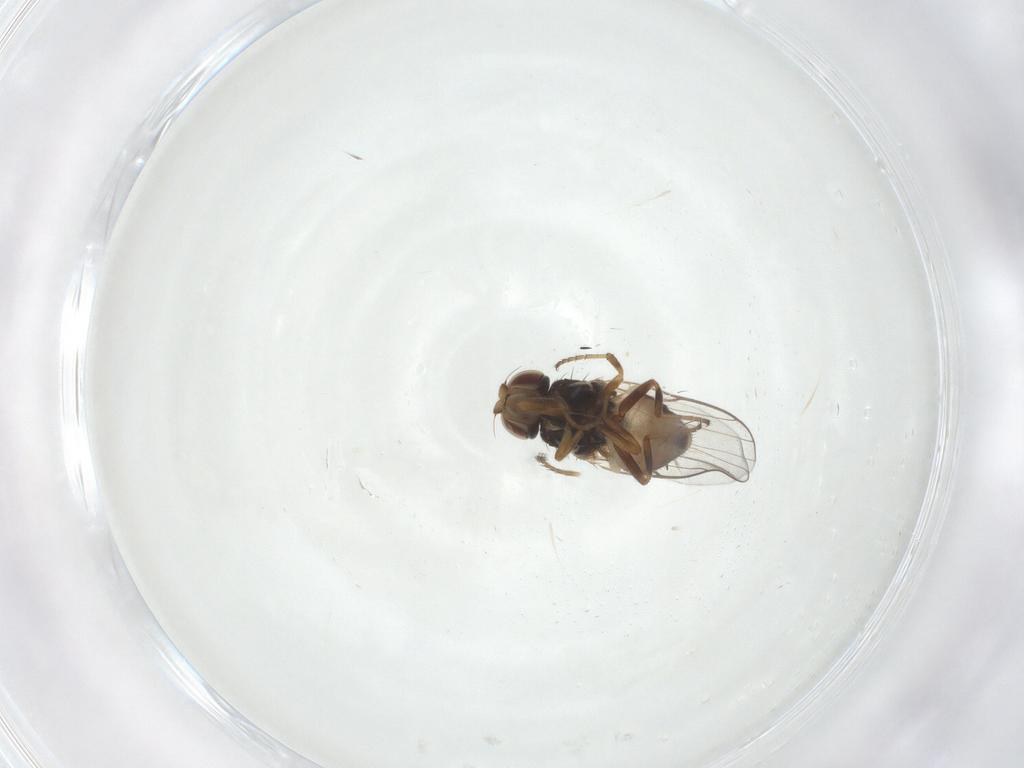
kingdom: Animalia
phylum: Arthropoda
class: Insecta
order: Diptera
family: Chloropidae
